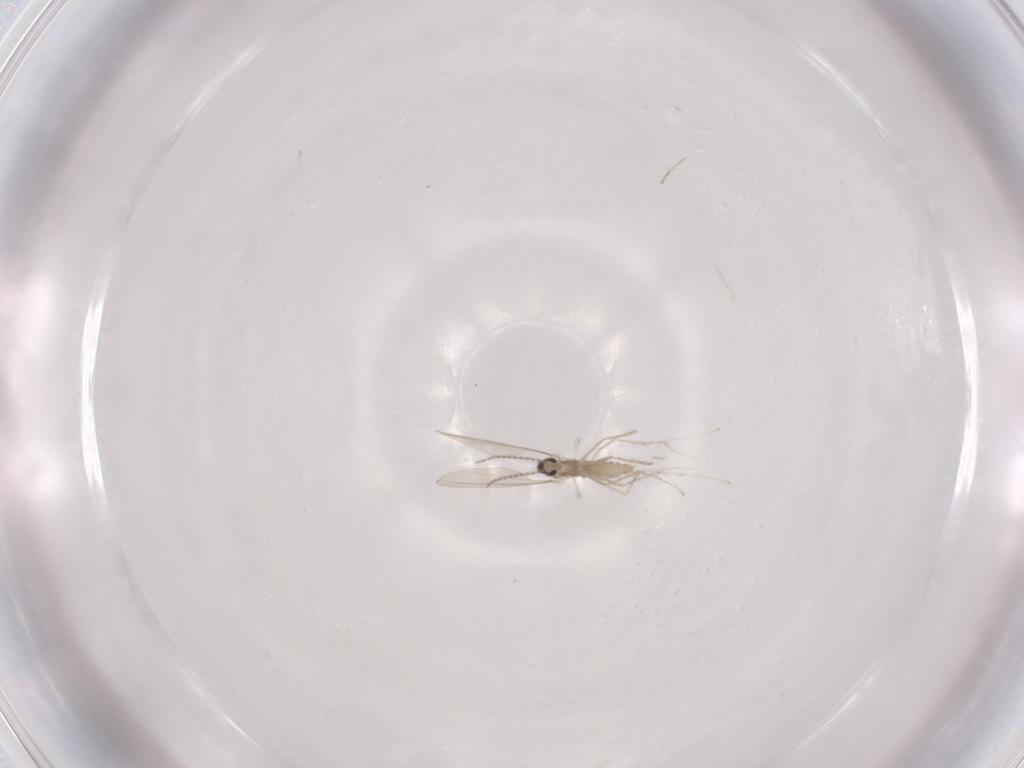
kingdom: Animalia
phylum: Arthropoda
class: Insecta
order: Diptera
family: Cecidomyiidae
